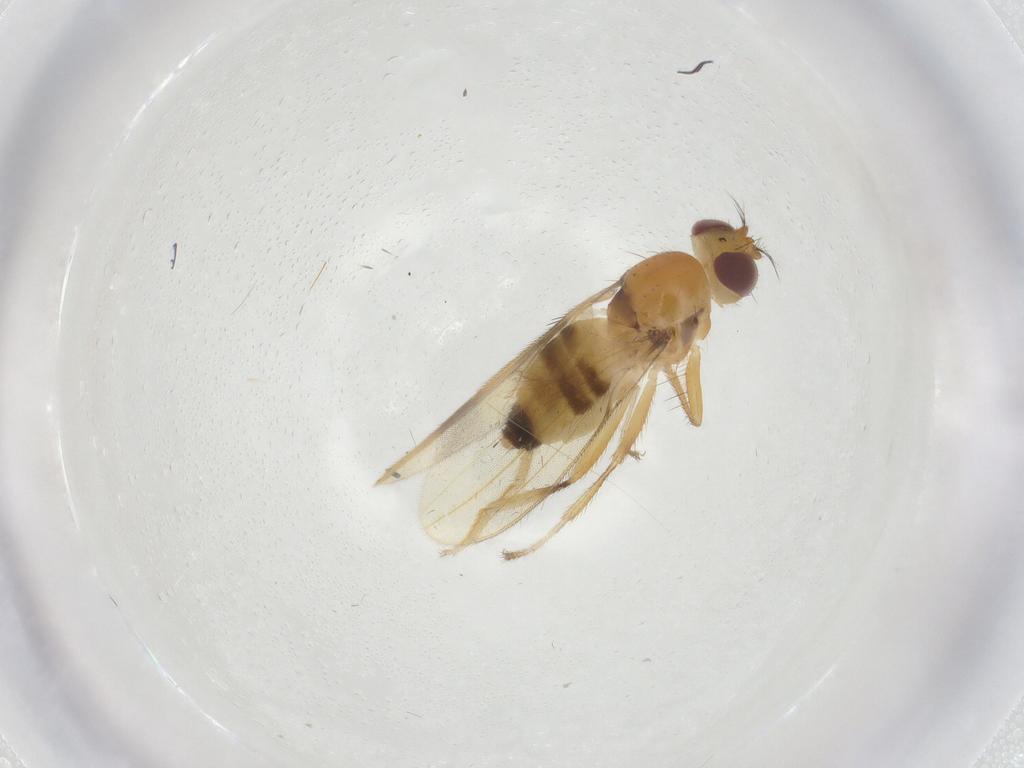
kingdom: Animalia
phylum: Arthropoda
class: Insecta
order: Diptera
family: Periscelididae
